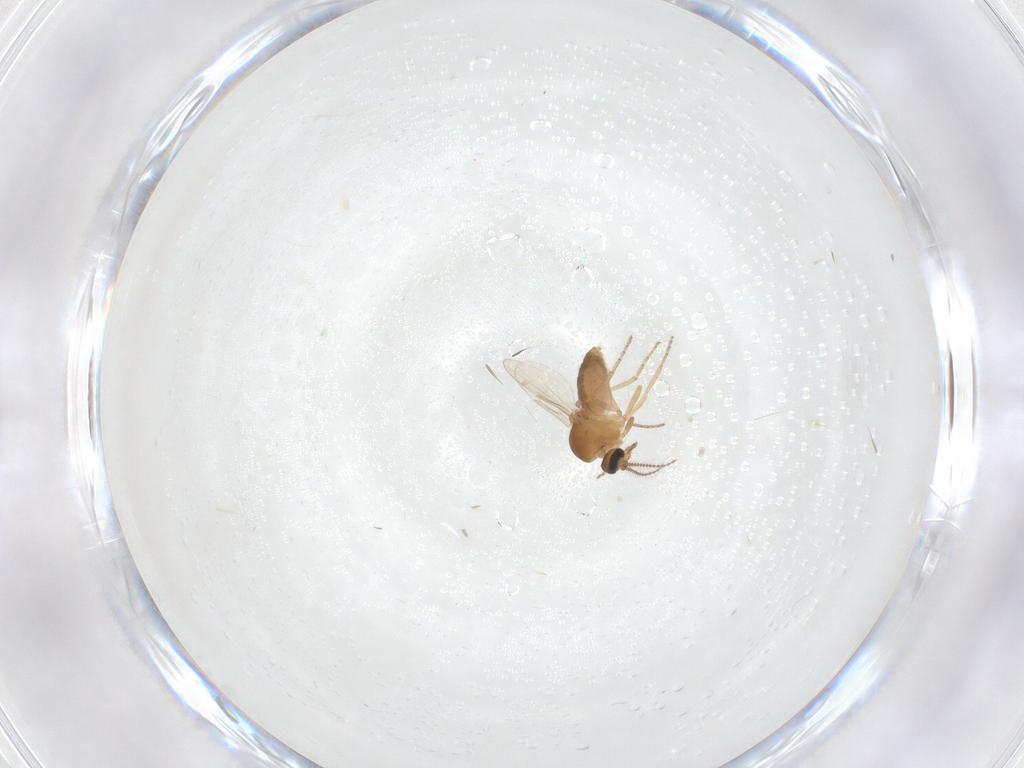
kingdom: Animalia
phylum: Arthropoda
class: Insecta
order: Diptera
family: Ceratopogonidae
